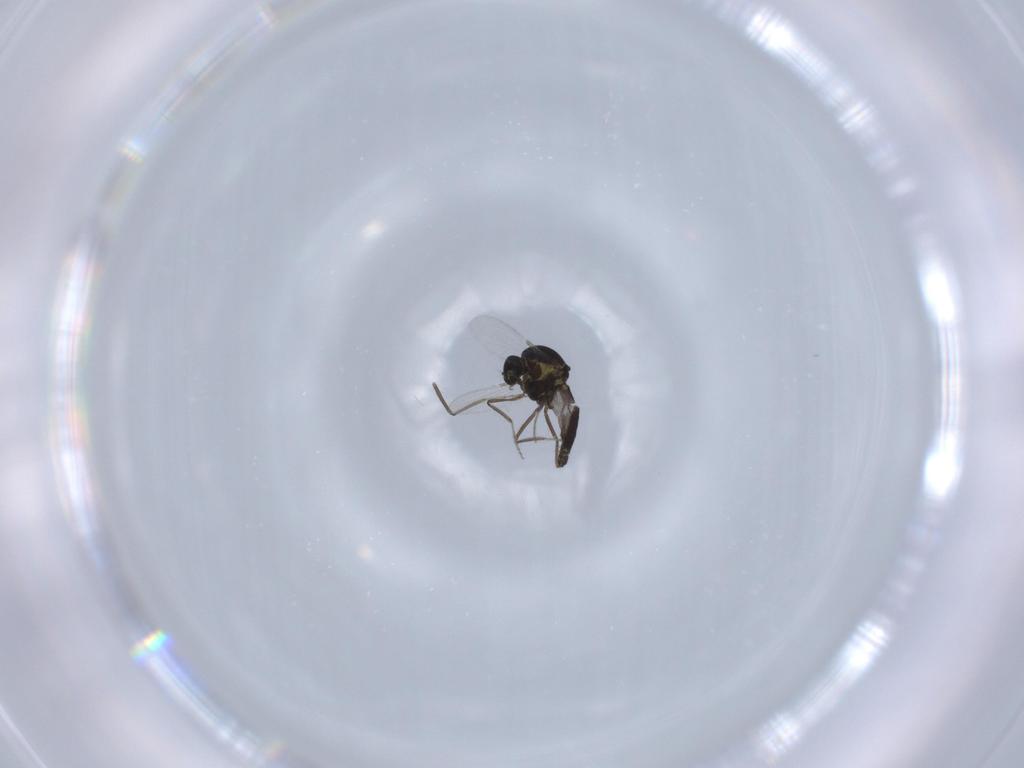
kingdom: Animalia
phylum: Arthropoda
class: Insecta
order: Diptera
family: Ceratopogonidae
